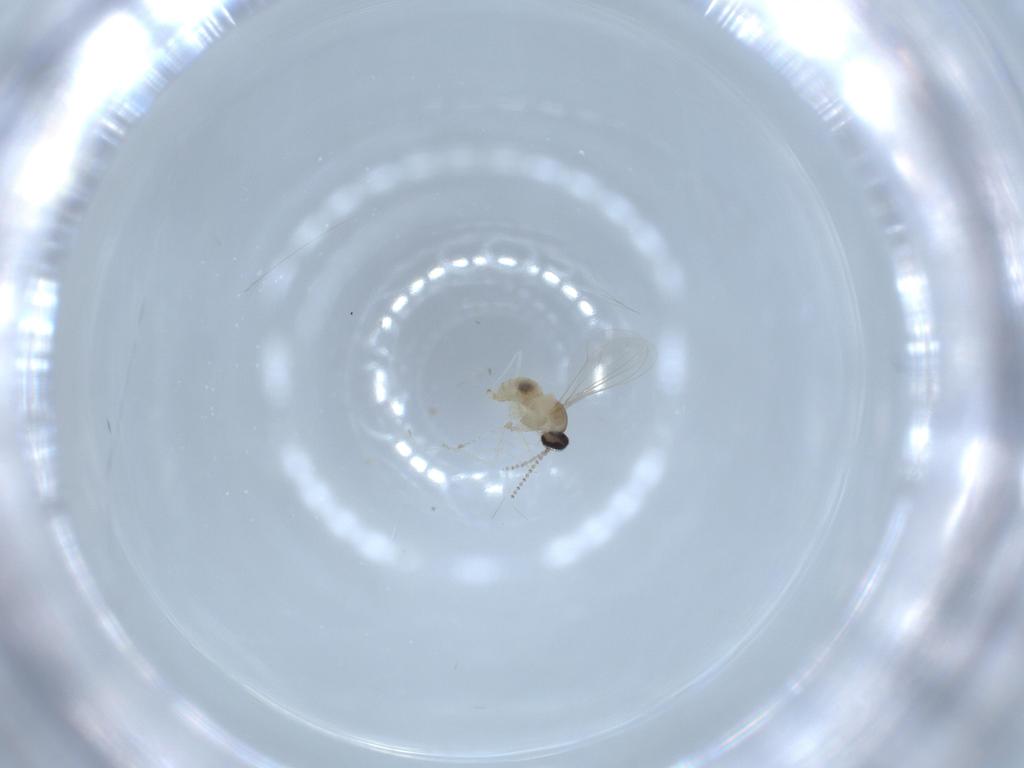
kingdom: Animalia
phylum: Arthropoda
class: Insecta
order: Diptera
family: Cecidomyiidae
